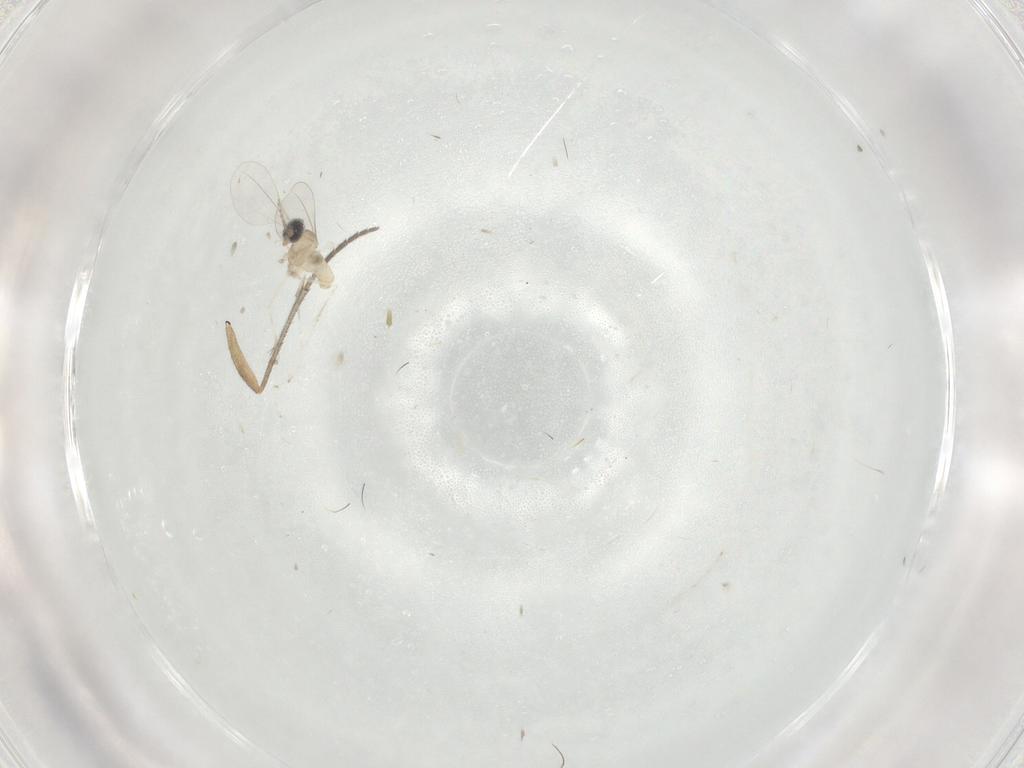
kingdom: Animalia
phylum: Arthropoda
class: Insecta
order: Diptera
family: Sciaridae
